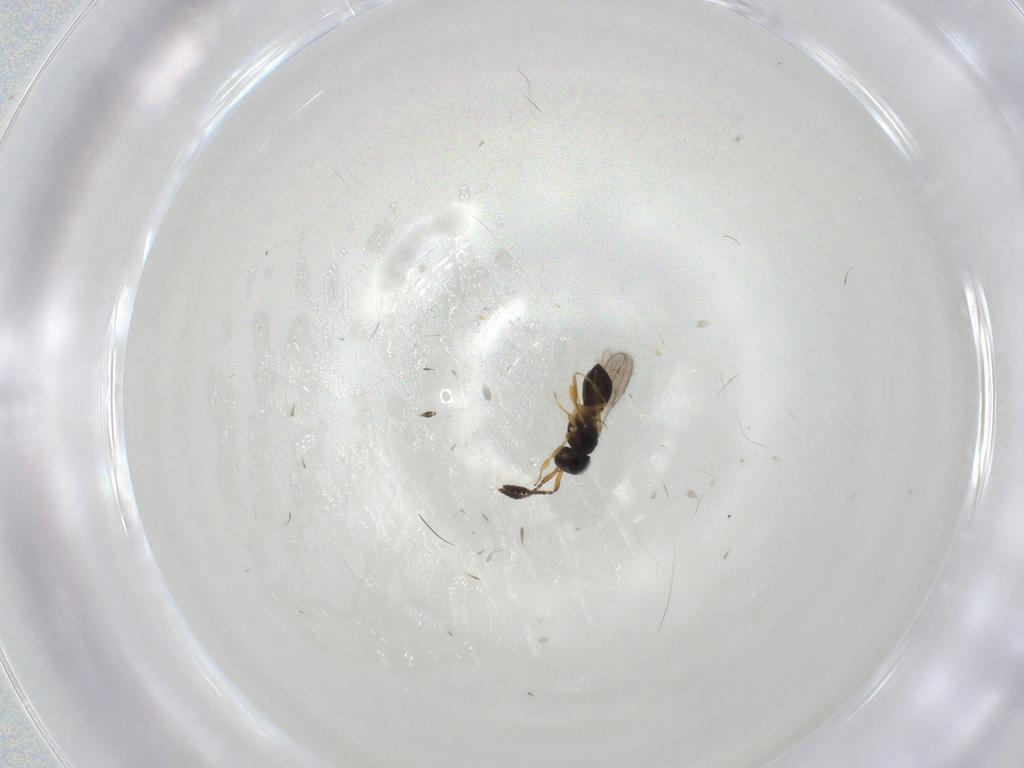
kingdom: Animalia
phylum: Arthropoda
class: Insecta
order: Hymenoptera
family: Scelionidae
